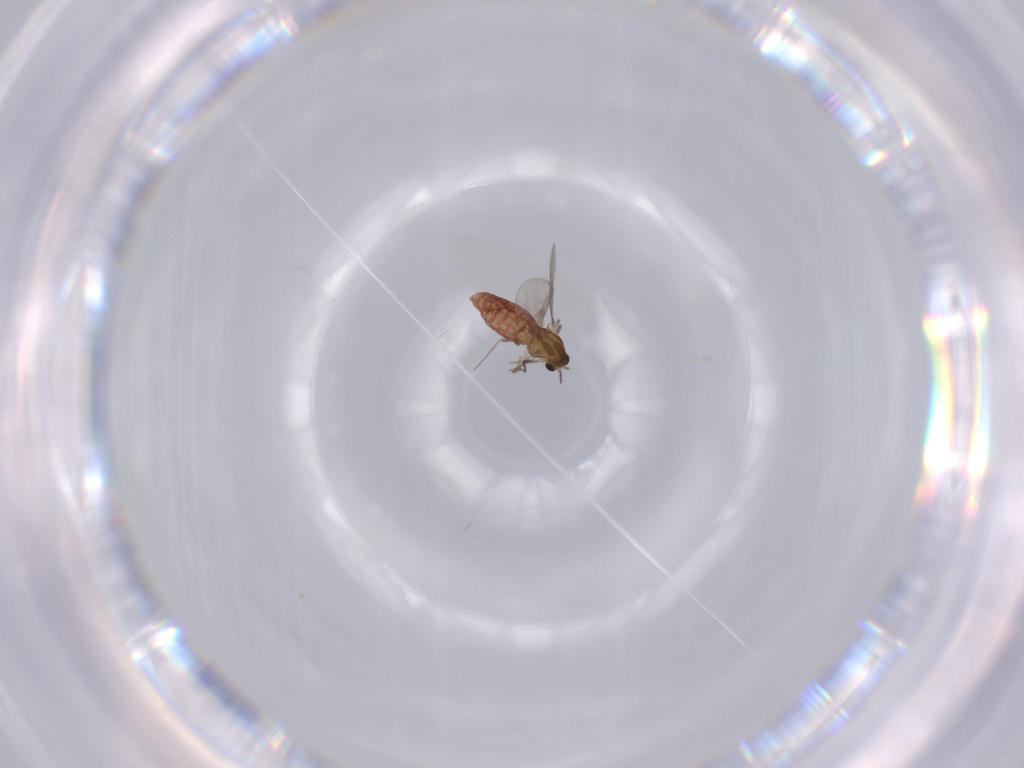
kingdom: Animalia
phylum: Arthropoda
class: Insecta
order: Diptera
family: Chironomidae
